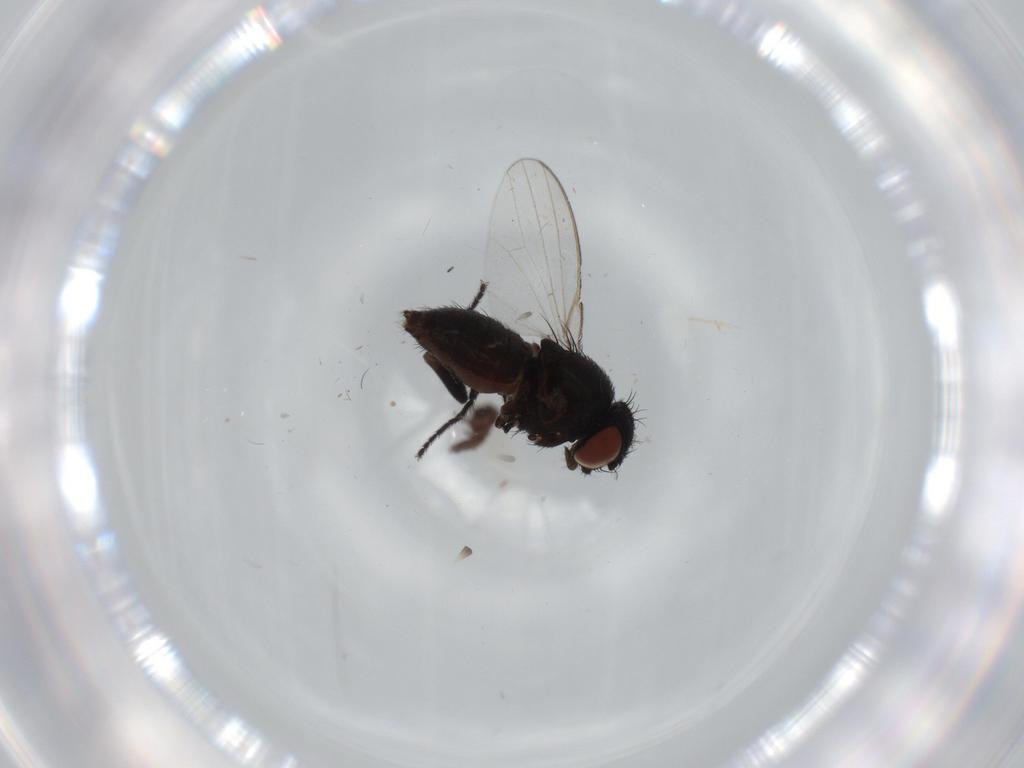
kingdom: Animalia
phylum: Arthropoda
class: Insecta
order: Diptera
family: Milichiidae
